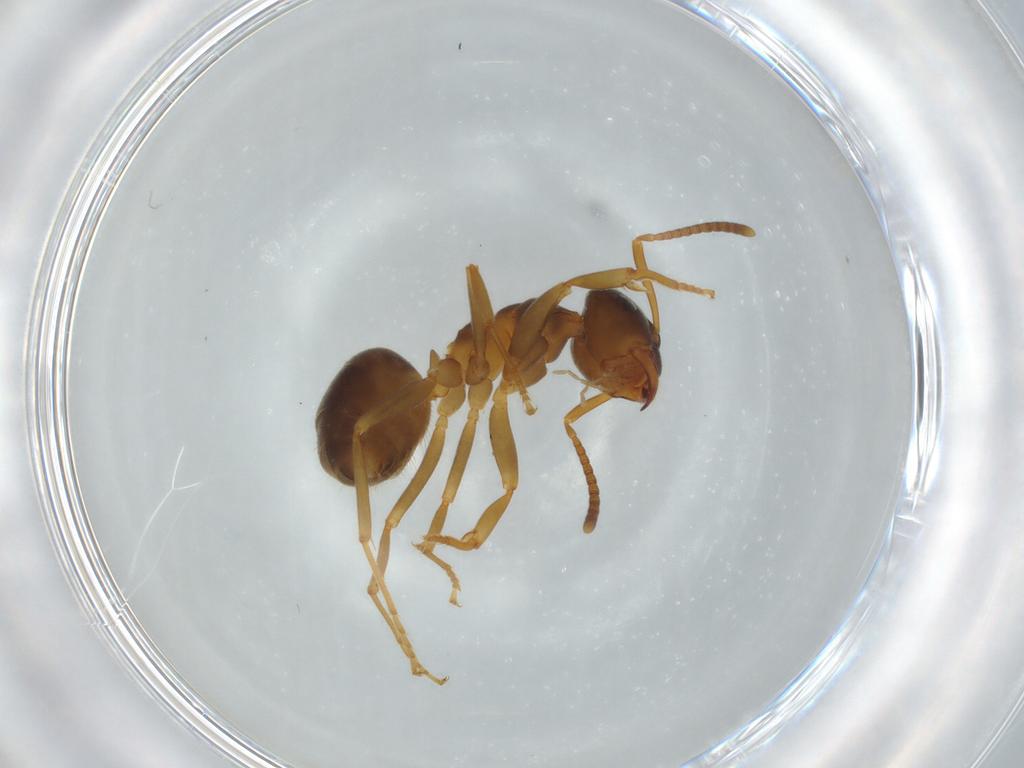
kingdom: Animalia
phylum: Arthropoda
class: Insecta
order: Hymenoptera
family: Formicidae
